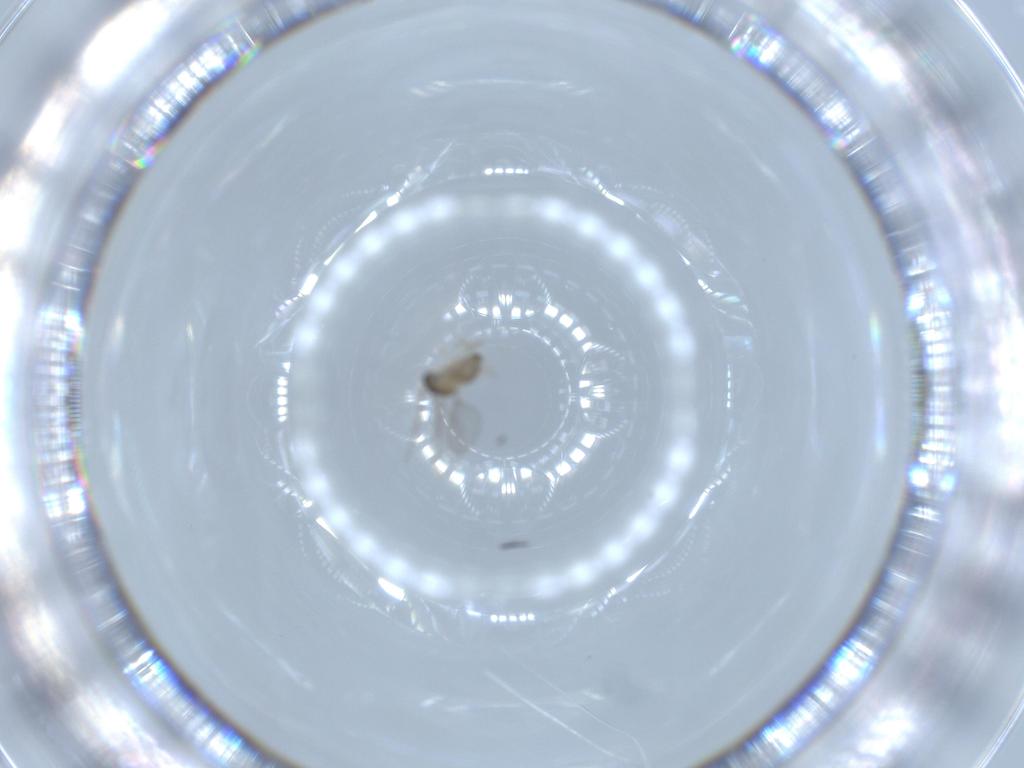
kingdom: Animalia
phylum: Arthropoda
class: Insecta
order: Diptera
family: Cecidomyiidae
